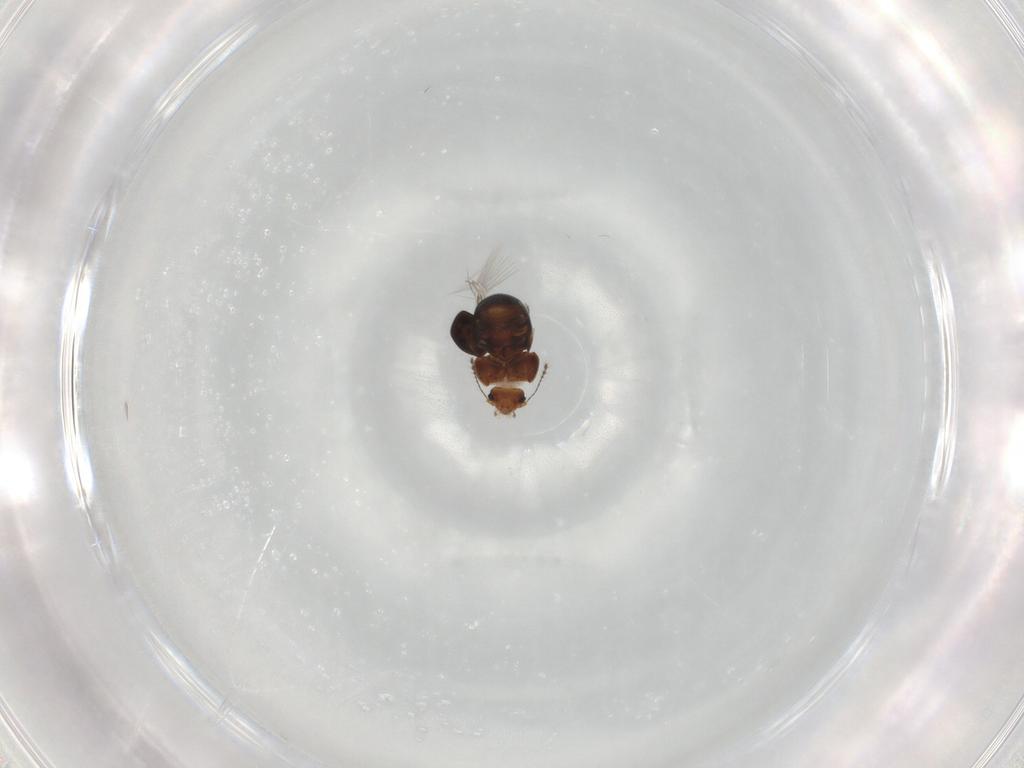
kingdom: Animalia
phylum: Arthropoda
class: Insecta
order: Coleoptera
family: Ptiliidae
